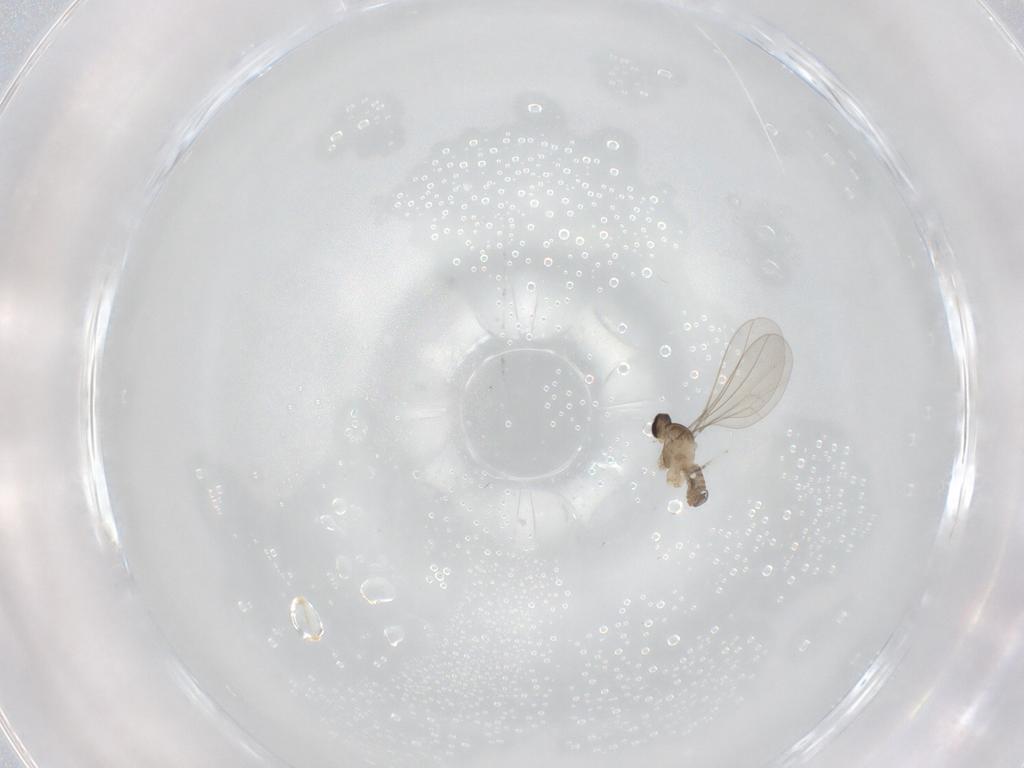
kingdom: Animalia
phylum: Arthropoda
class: Insecta
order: Diptera
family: Cecidomyiidae
